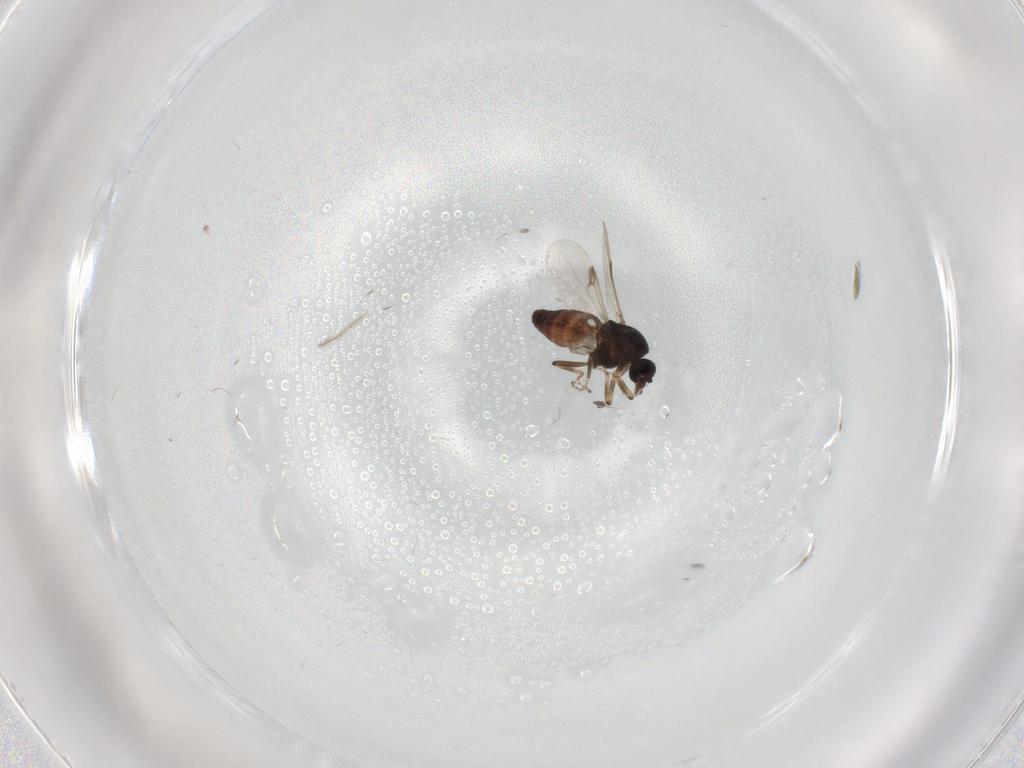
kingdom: Animalia
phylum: Arthropoda
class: Insecta
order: Diptera
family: Ceratopogonidae
